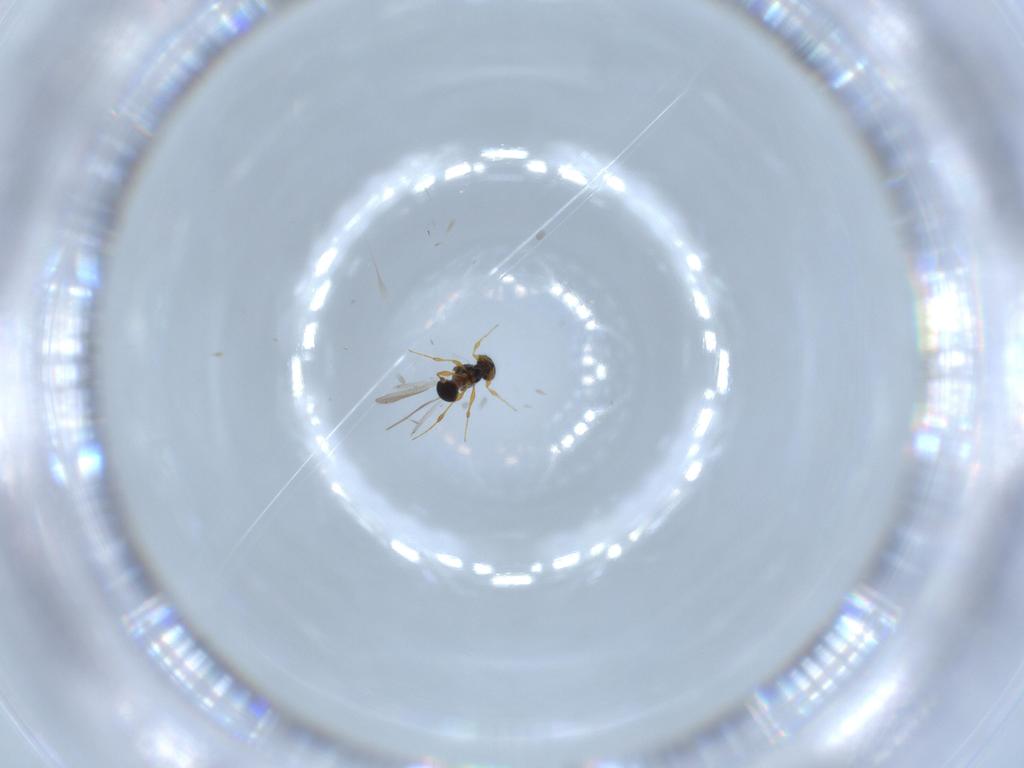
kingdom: Animalia
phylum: Arthropoda
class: Insecta
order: Hymenoptera
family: Platygastridae
